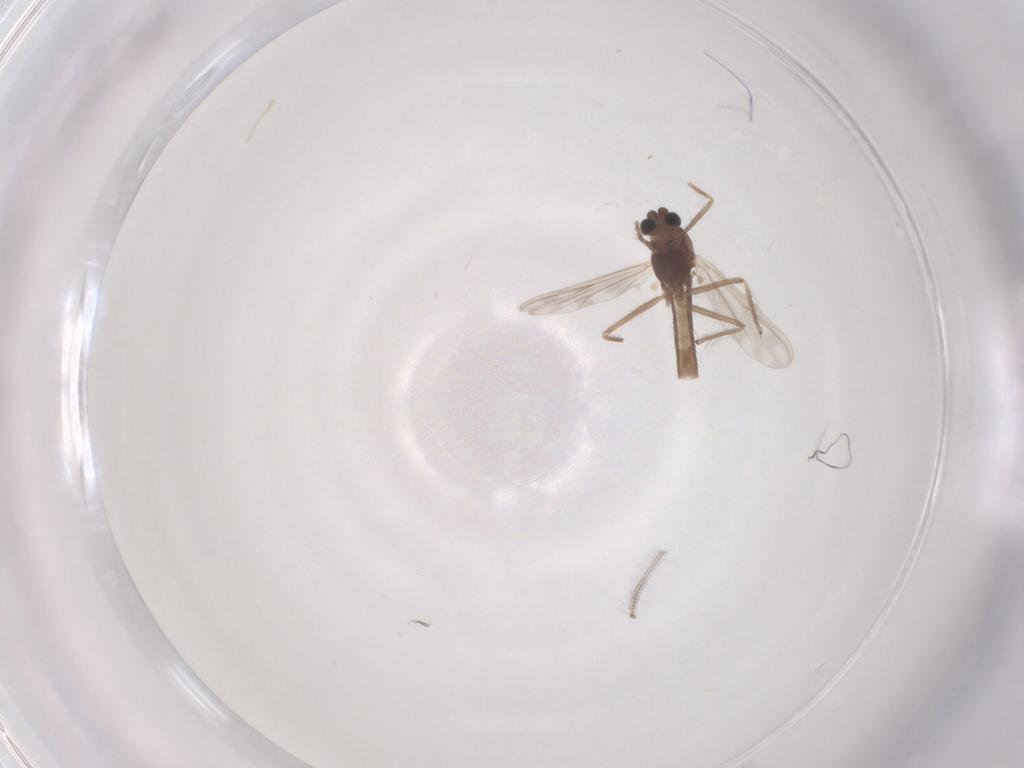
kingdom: Animalia
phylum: Arthropoda
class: Insecta
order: Diptera
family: Chironomidae
